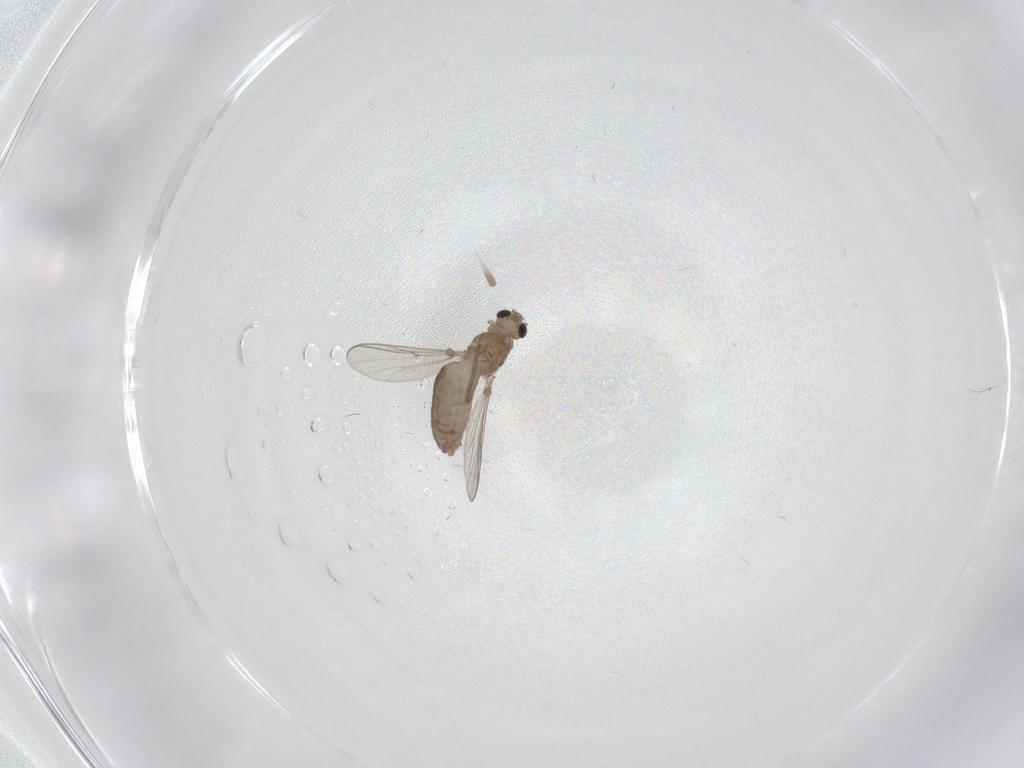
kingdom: Animalia
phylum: Arthropoda
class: Insecta
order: Diptera
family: Chironomidae
